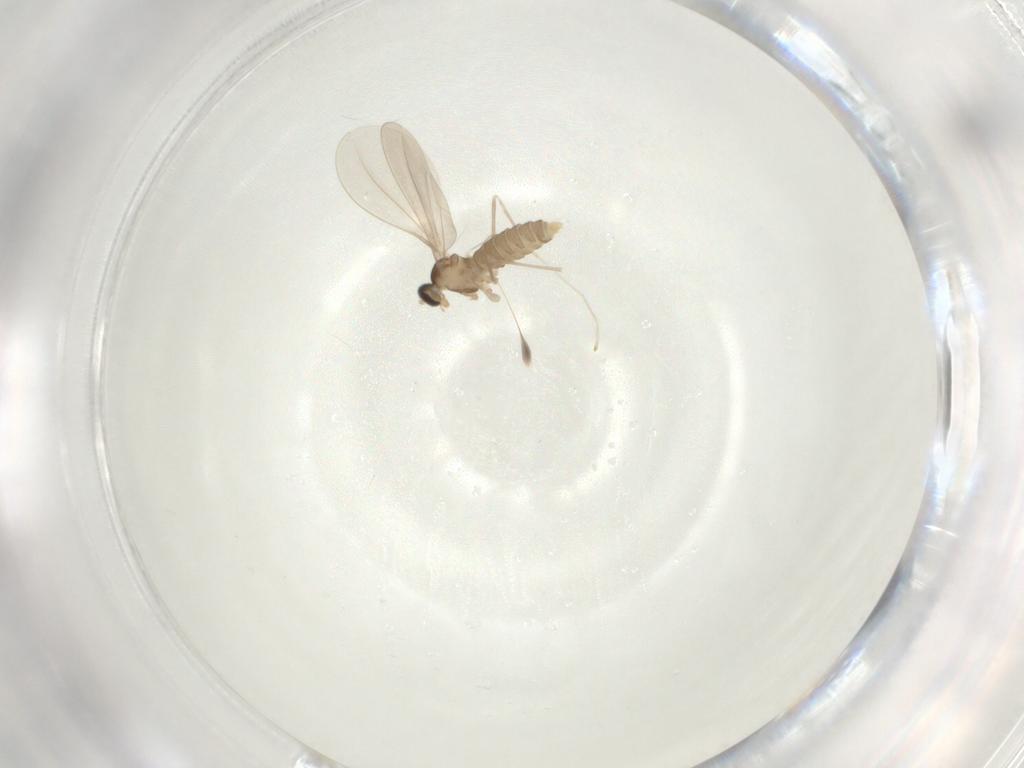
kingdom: Animalia
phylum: Arthropoda
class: Insecta
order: Diptera
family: Cecidomyiidae
